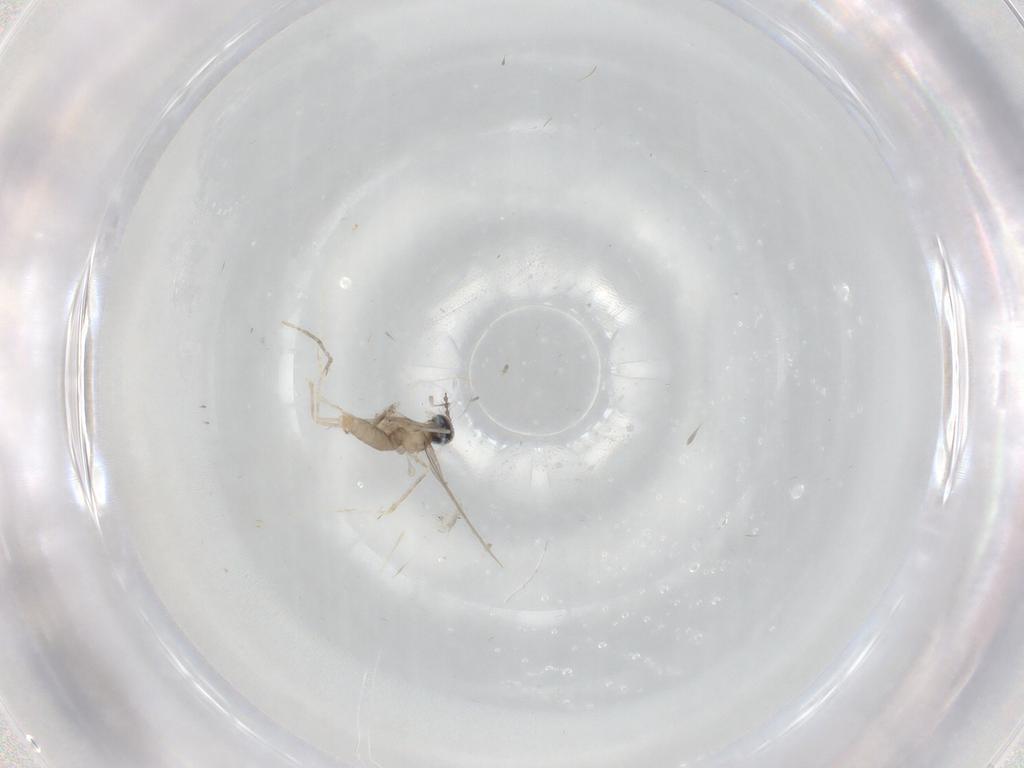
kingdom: Animalia
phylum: Arthropoda
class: Insecta
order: Diptera
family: Cecidomyiidae
